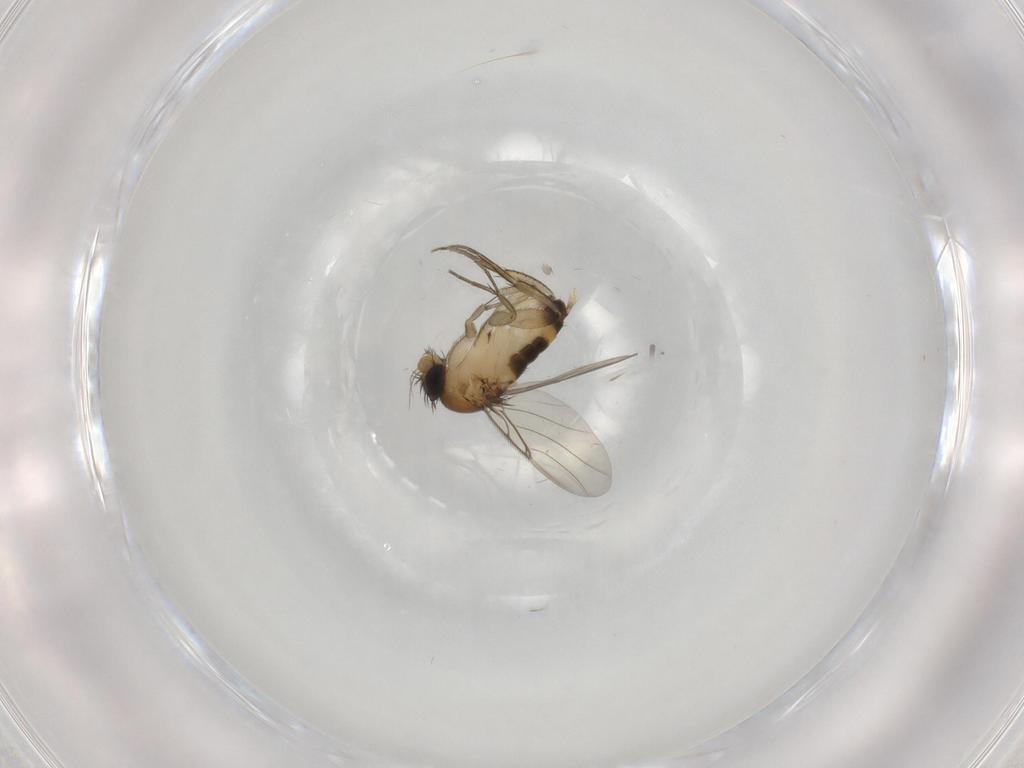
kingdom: Animalia
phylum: Arthropoda
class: Insecta
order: Diptera
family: Phoridae
